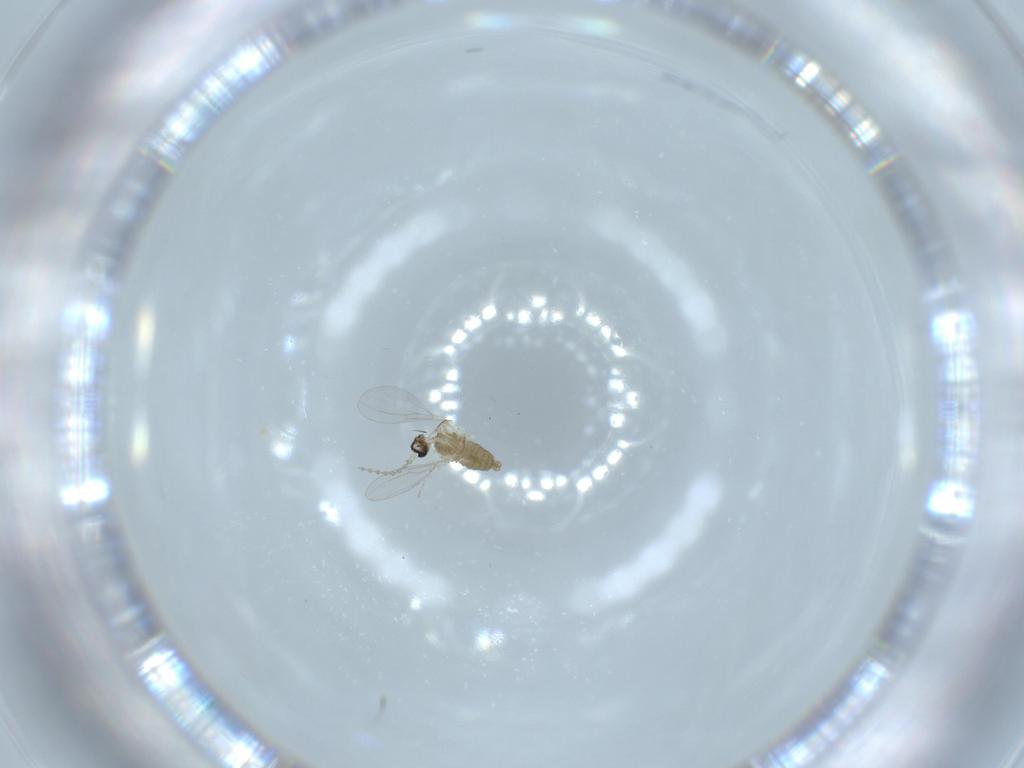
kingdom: Animalia
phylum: Arthropoda
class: Insecta
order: Diptera
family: Cecidomyiidae
